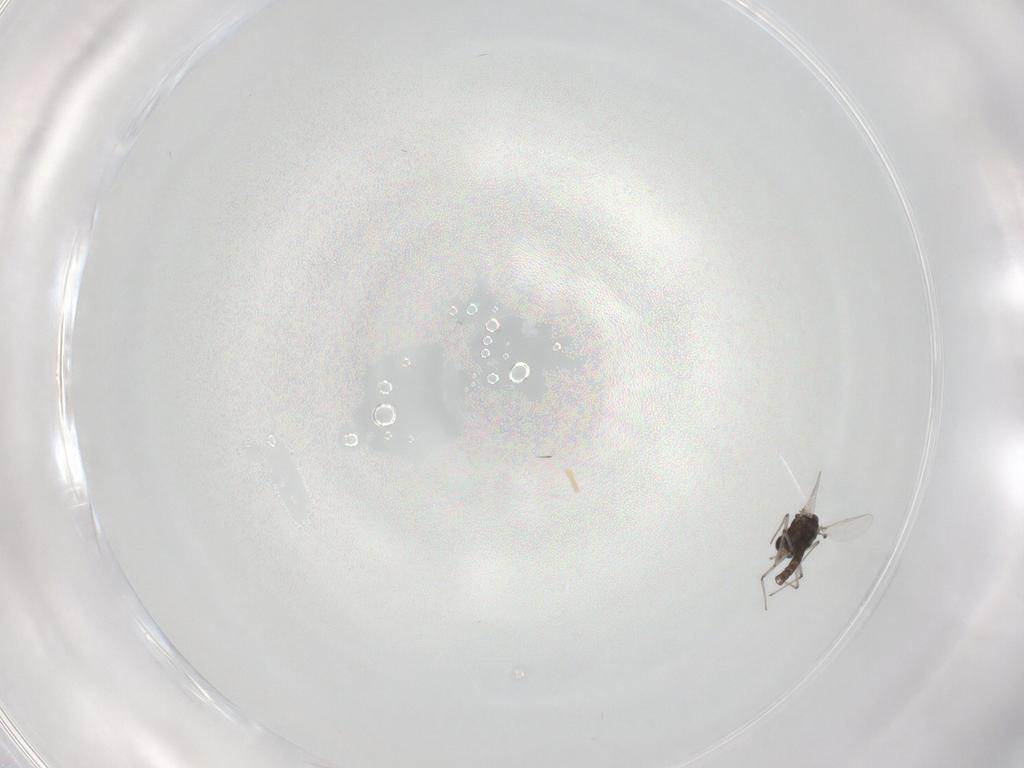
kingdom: Animalia
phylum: Arthropoda
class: Insecta
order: Diptera
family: Chironomidae
